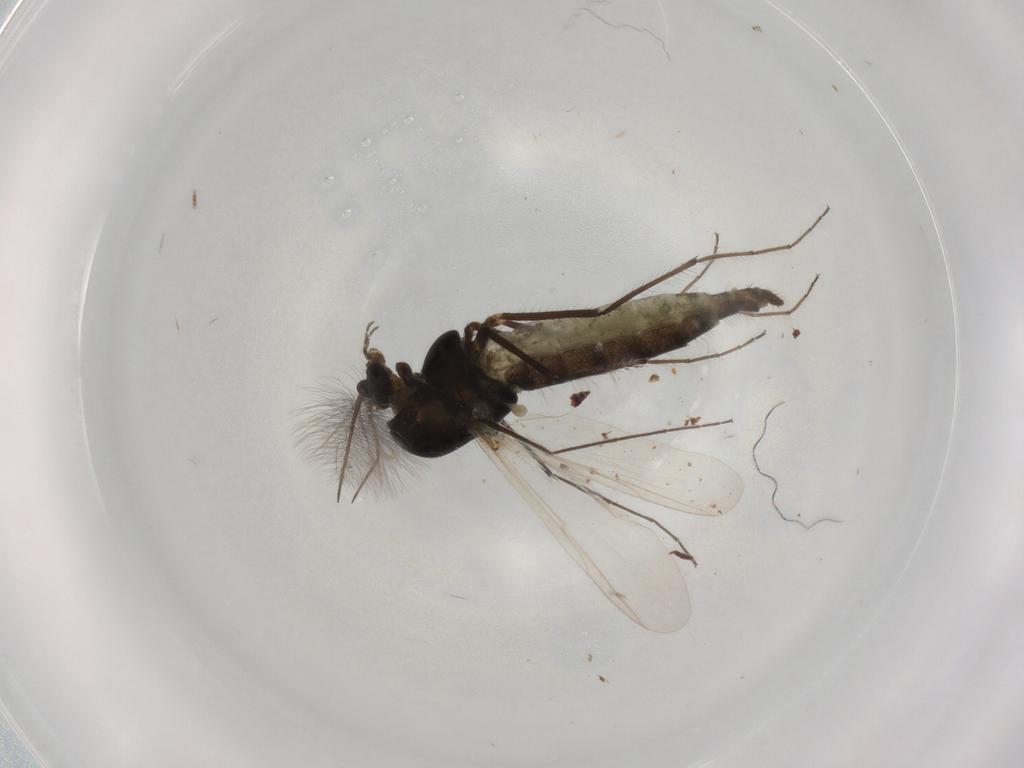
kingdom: Animalia
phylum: Arthropoda
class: Insecta
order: Diptera
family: Chironomidae
